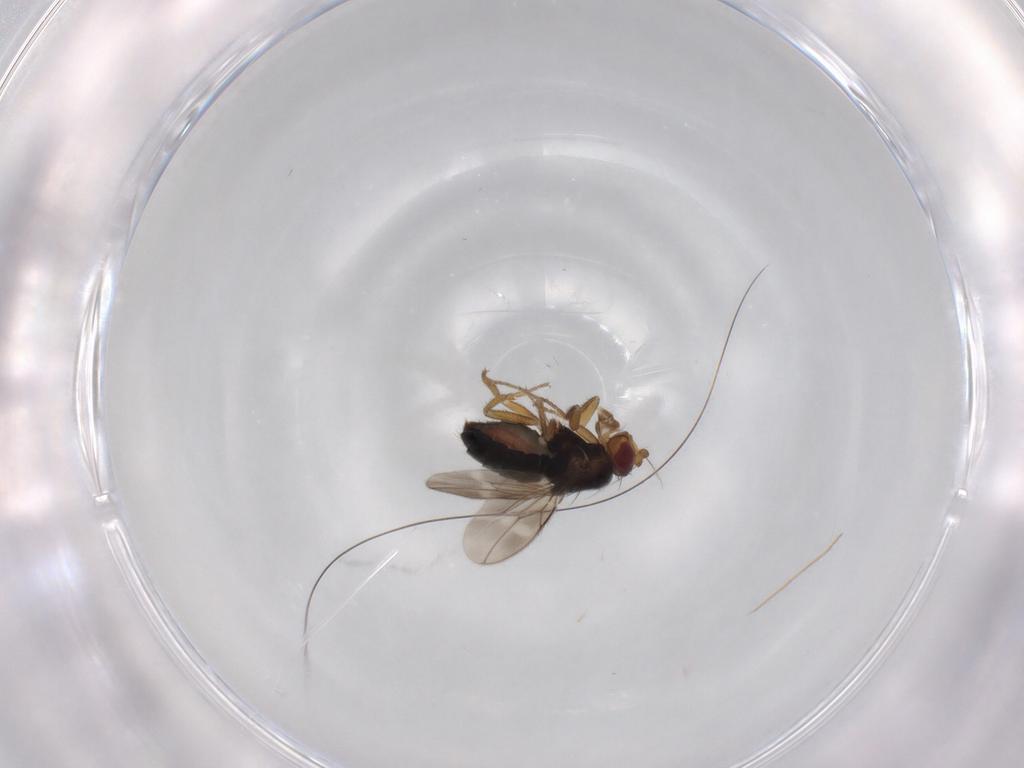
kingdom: Animalia
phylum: Arthropoda
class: Insecta
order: Diptera
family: Sphaeroceridae
